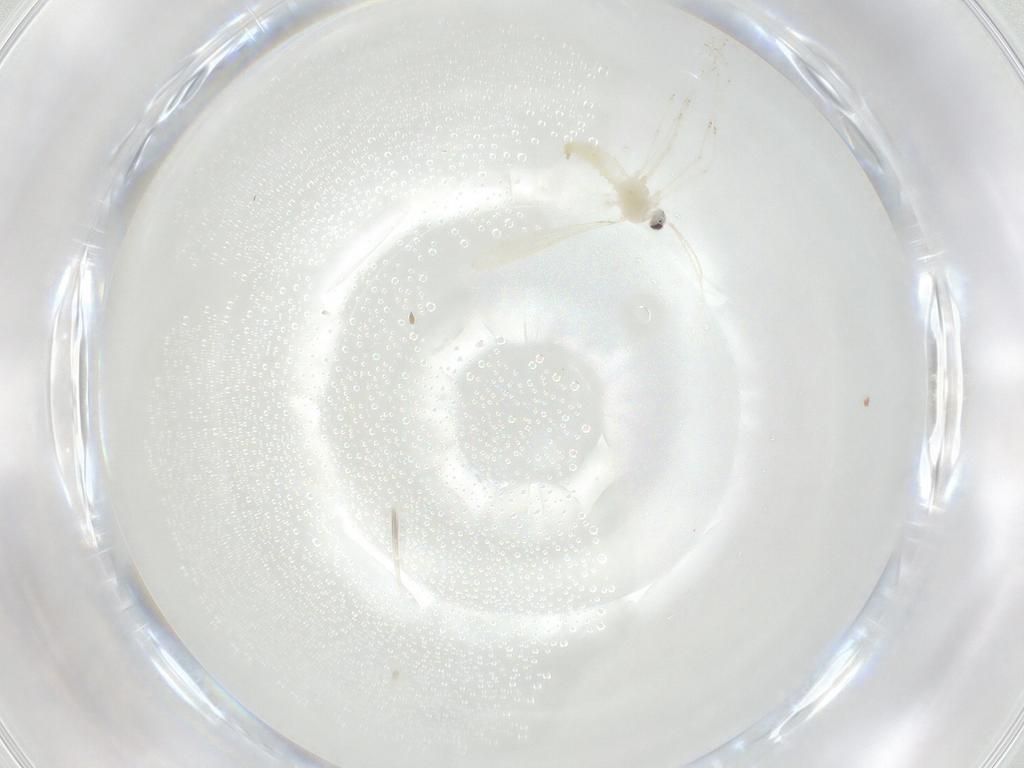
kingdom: Animalia
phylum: Arthropoda
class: Insecta
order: Diptera
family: Cecidomyiidae
